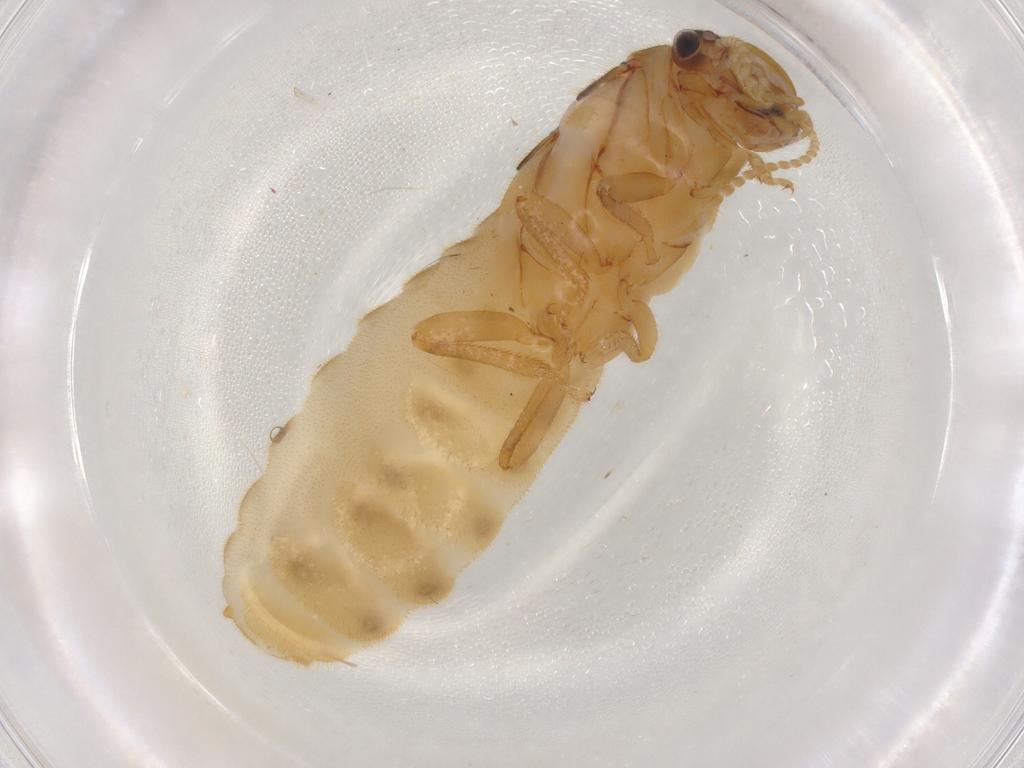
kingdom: Animalia
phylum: Arthropoda
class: Insecta
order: Blattodea
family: Termitidae
